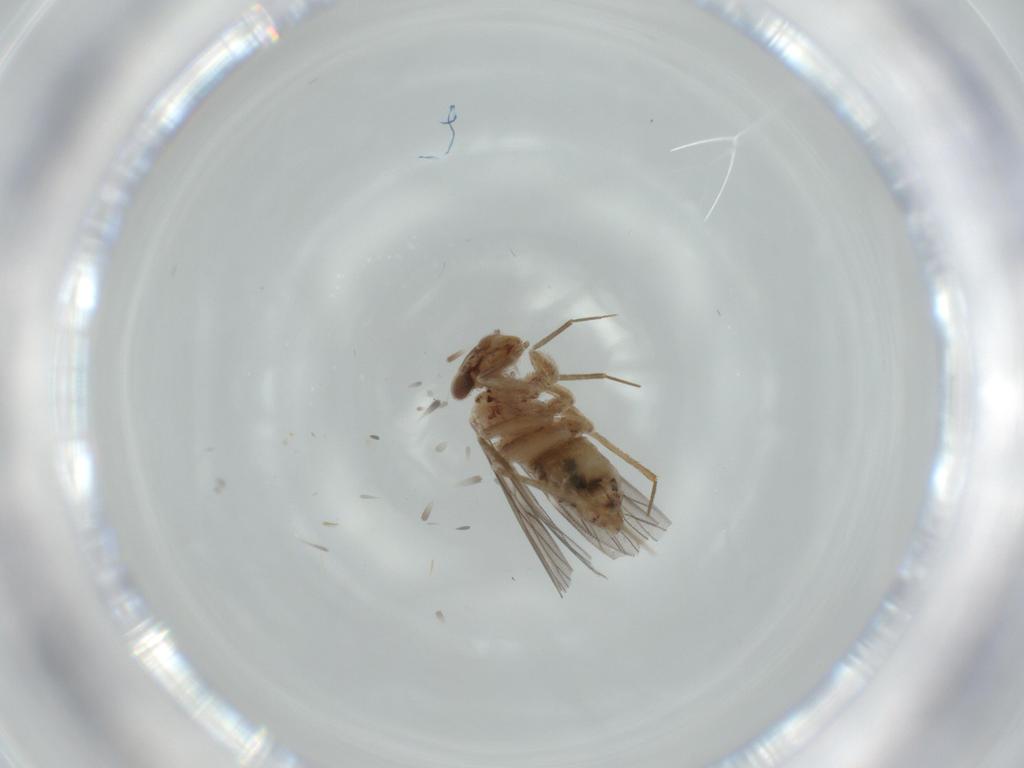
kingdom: Animalia
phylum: Arthropoda
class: Insecta
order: Psocodea
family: Lepidopsocidae
